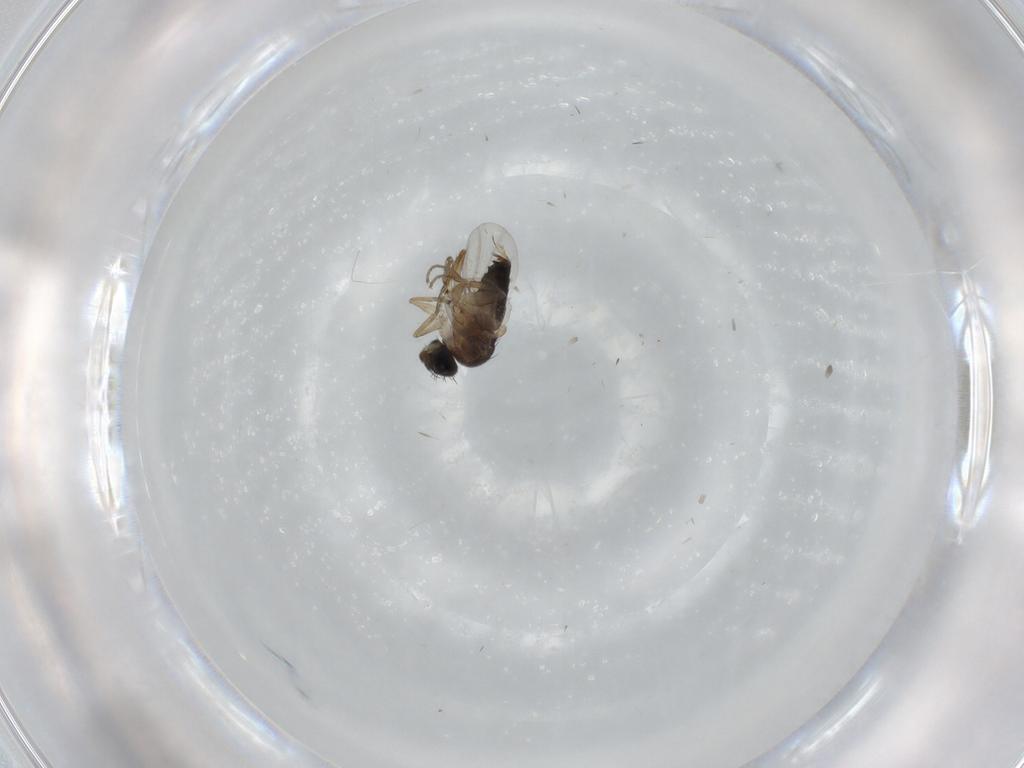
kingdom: Animalia
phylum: Arthropoda
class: Insecta
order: Diptera
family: Phoridae
